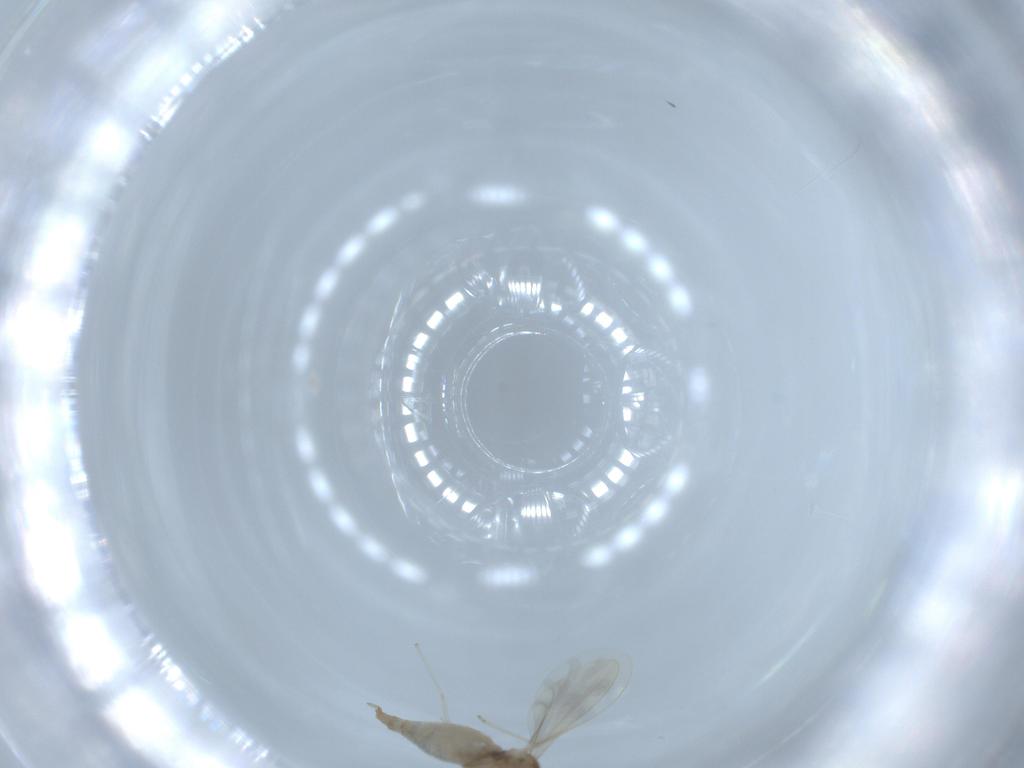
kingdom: Animalia
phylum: Arthropoda
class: Insecta
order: Diptera
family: Cecidomyiidae
